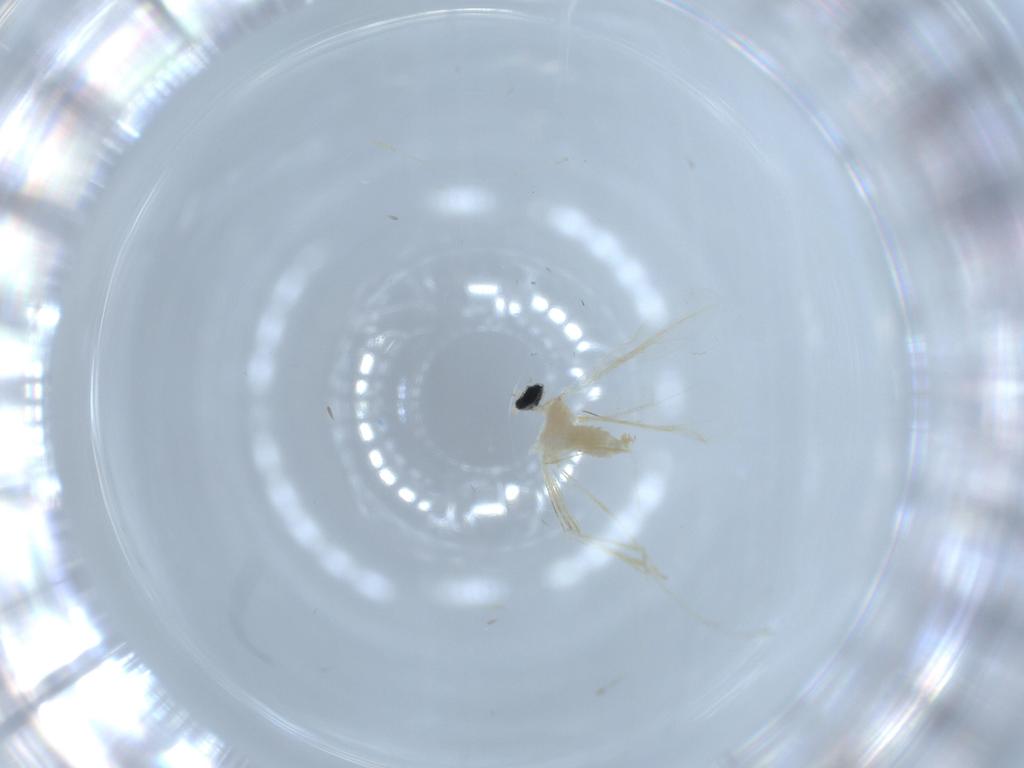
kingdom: Animalia
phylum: Arthropoda
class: Insecta
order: Diptera
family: Cecidomyiidae
